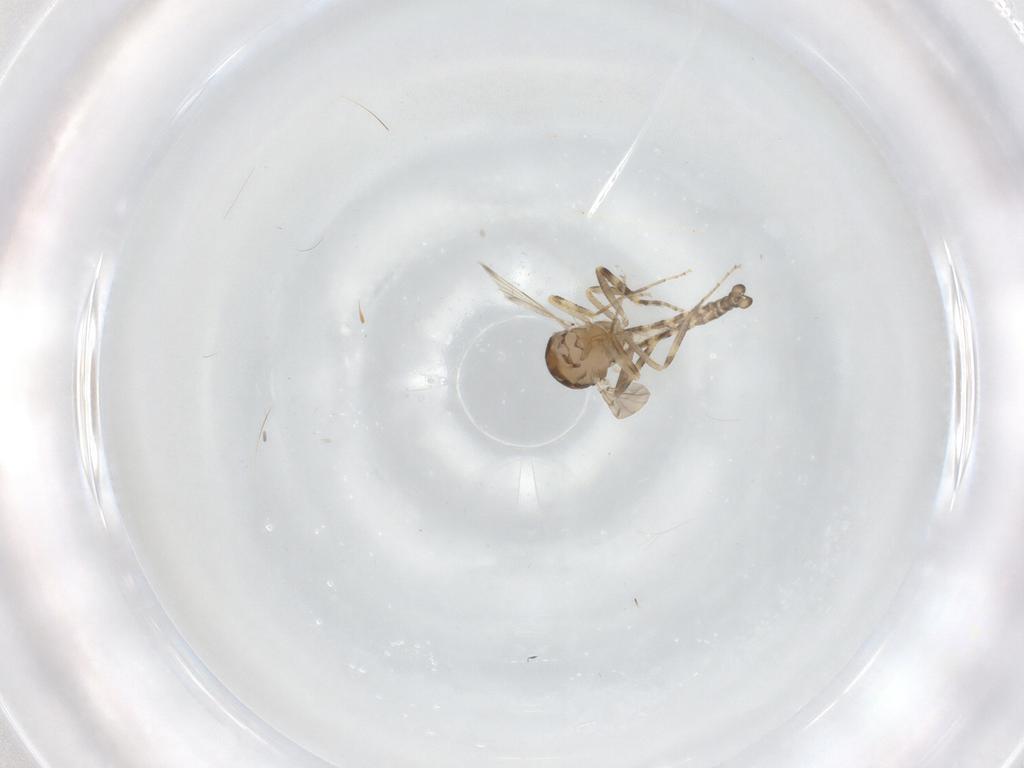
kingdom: Animalia
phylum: Arthropoda
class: Insecta
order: Diptera
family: Ceratopogonidae
